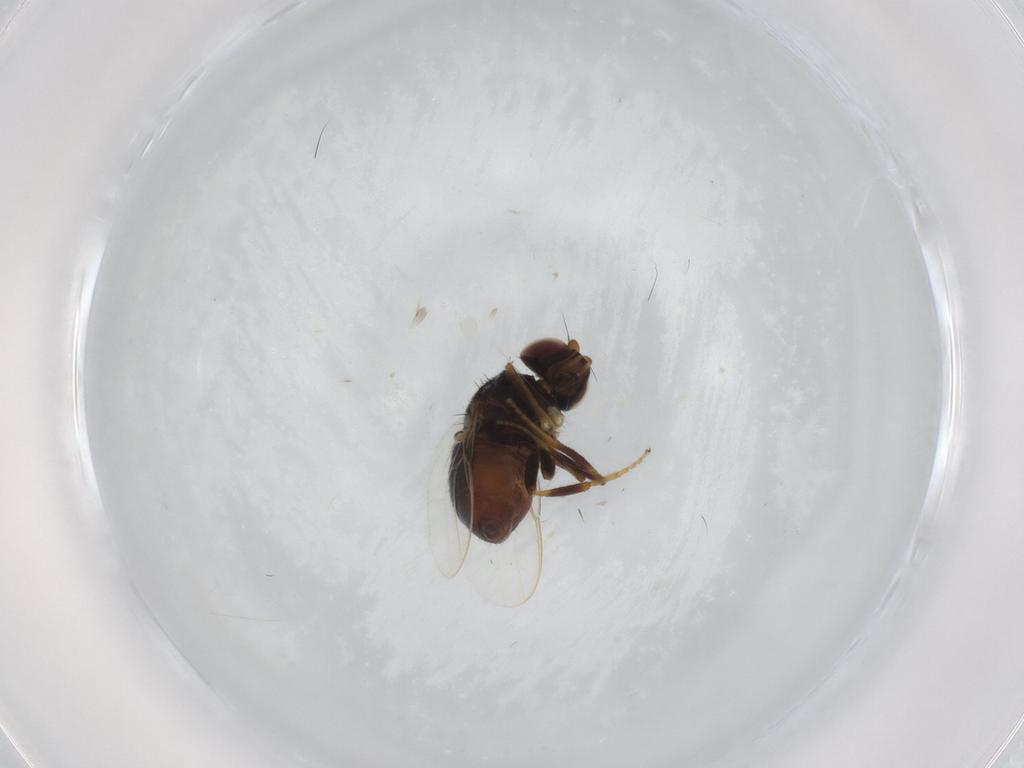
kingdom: Animalia
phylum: Arthropoda
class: Insecta
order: Diptera
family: Chloropidae
